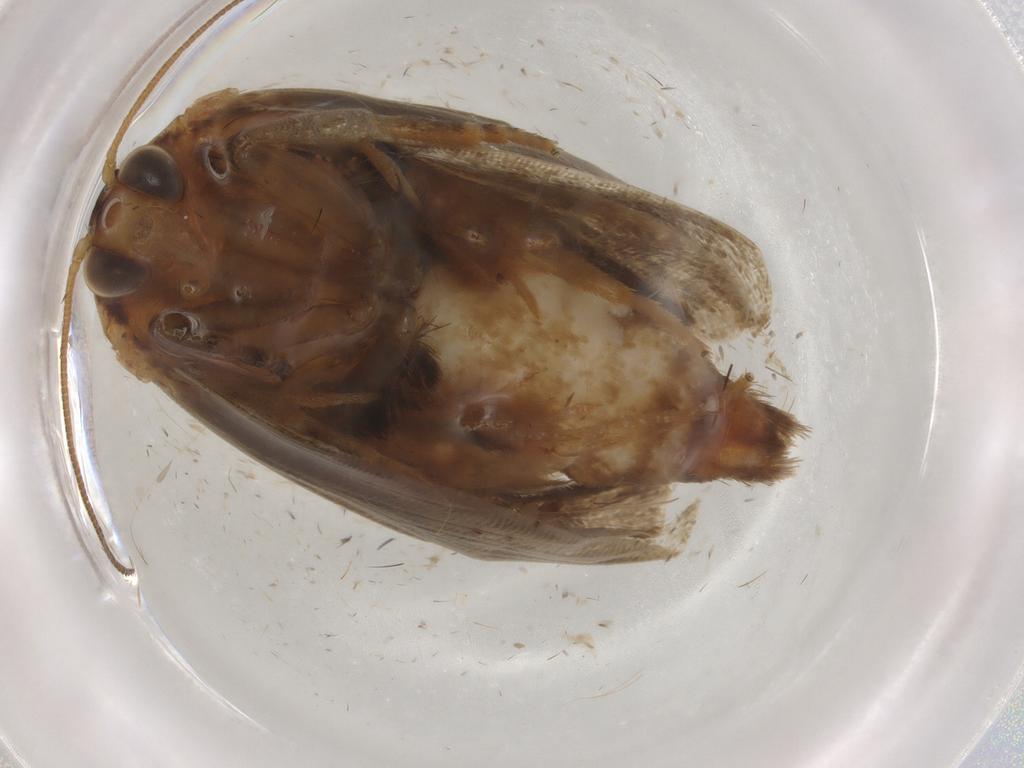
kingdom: Animalia
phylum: Arthropoda
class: Insecta
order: Lepidoptera
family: Tortricidae
